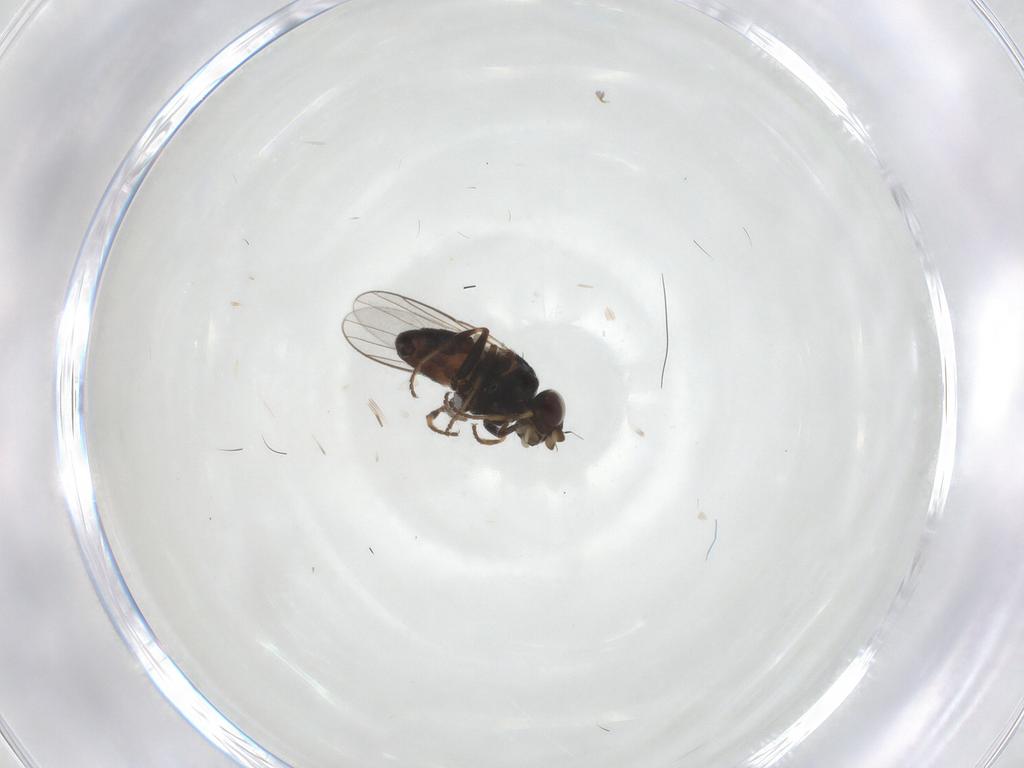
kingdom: Animalia
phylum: Arthropoda
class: Insecta
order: Diptera
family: Chloropidae
